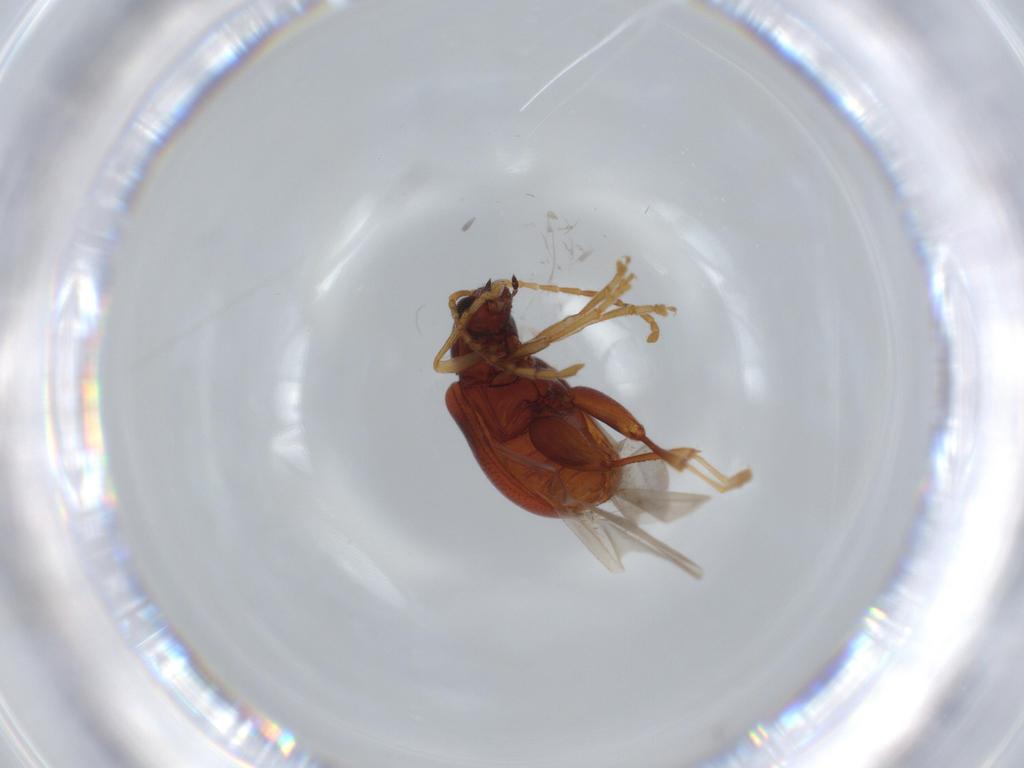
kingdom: Animalia
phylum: Arthropoda
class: Insecta
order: Coleoptera
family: Chrysomelidae
